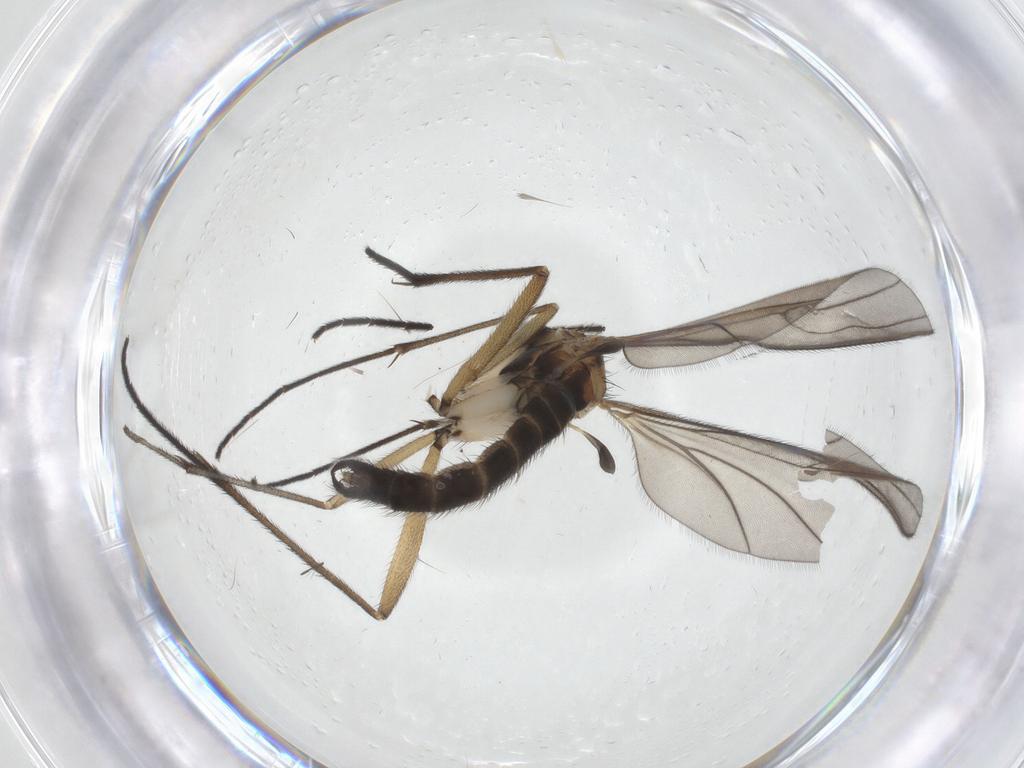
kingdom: Animalia
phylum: Arthropoda
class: Insecta
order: Diptera
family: Sciaridae
